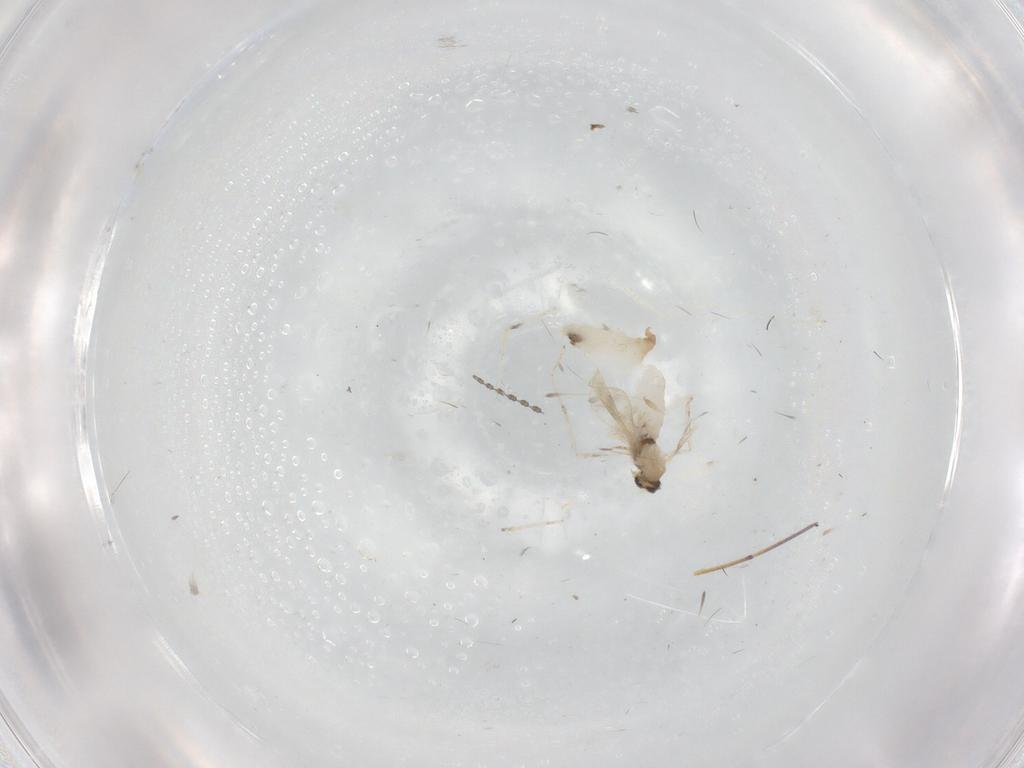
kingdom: Animalia
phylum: Arthropoda
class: Insecta
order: Diptera
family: Cecidomyiidae
